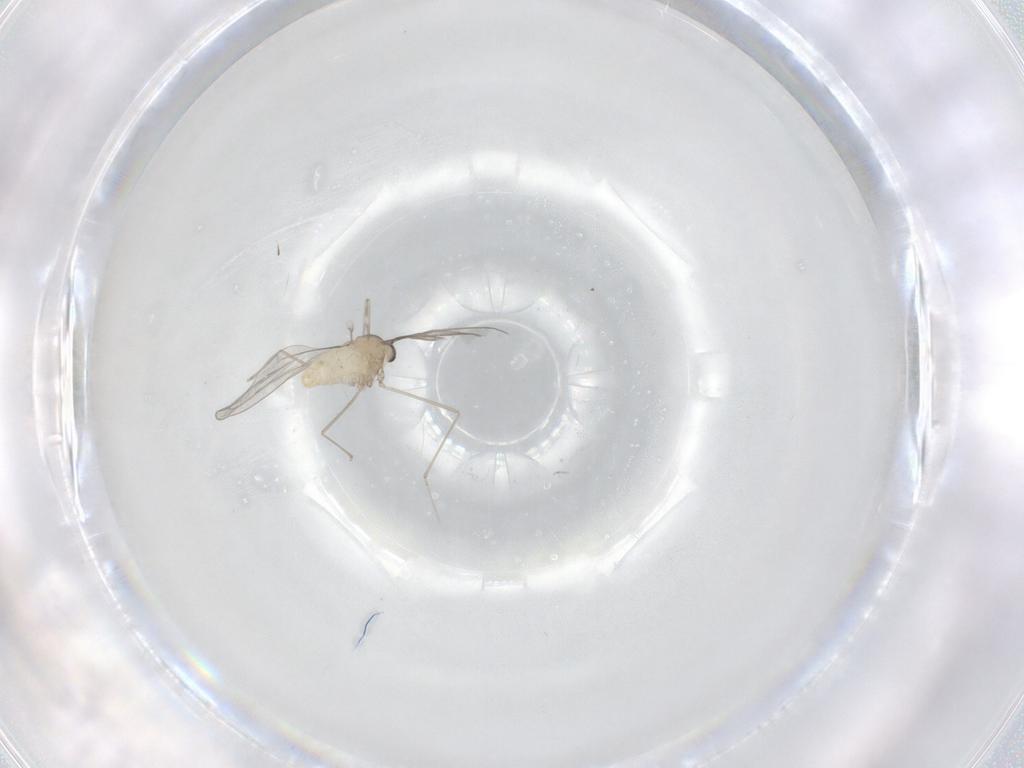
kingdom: Animalia
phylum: Arthropoda
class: Insecta
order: Diptera
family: Cecidomyiidae
